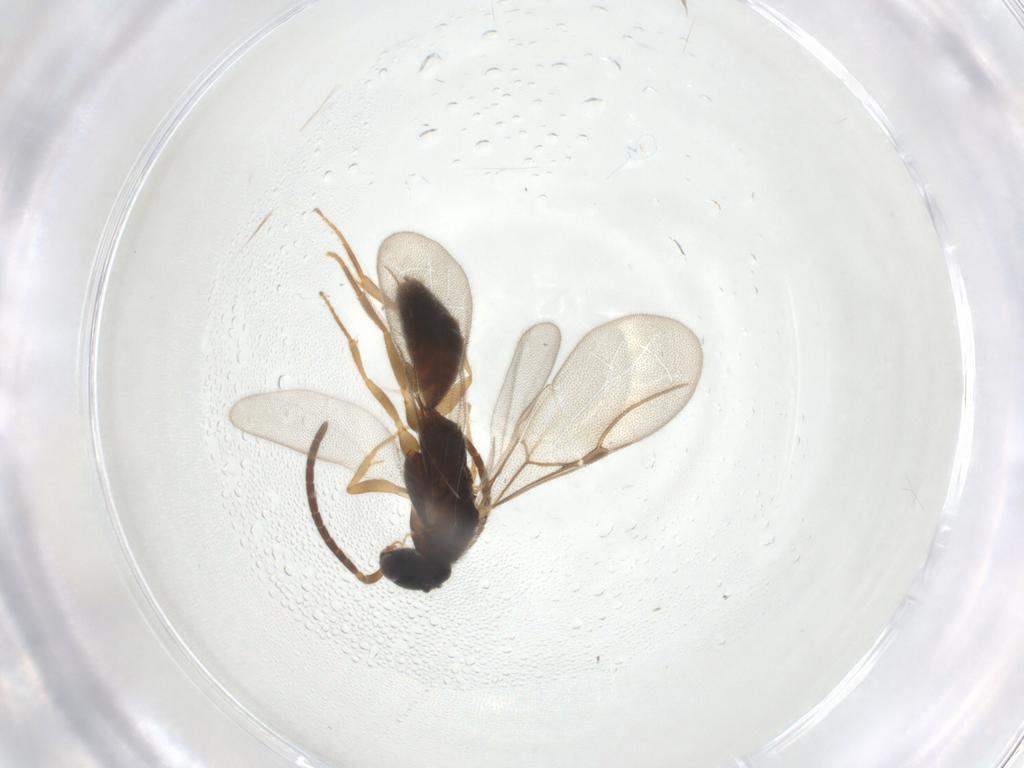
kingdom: Animalia
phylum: Arthropoda
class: Insecta
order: Hymenoptera
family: Bethylidae
